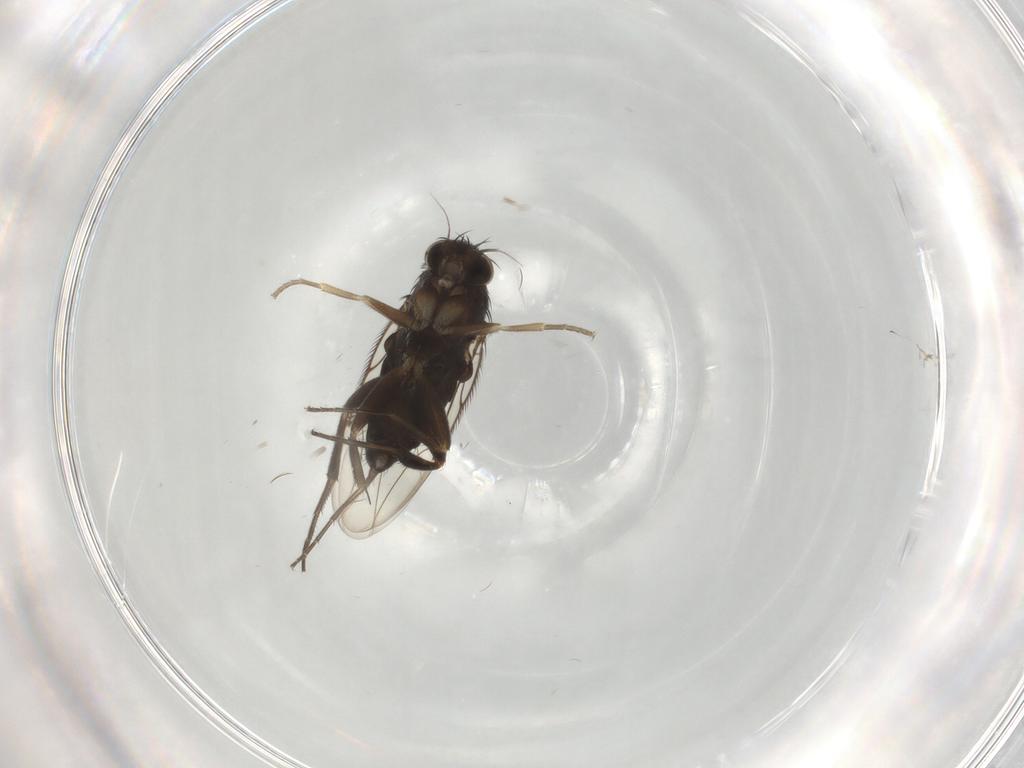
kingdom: Animalia
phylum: Arthropoda
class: Insecta
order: Diptera
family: Phoridae
